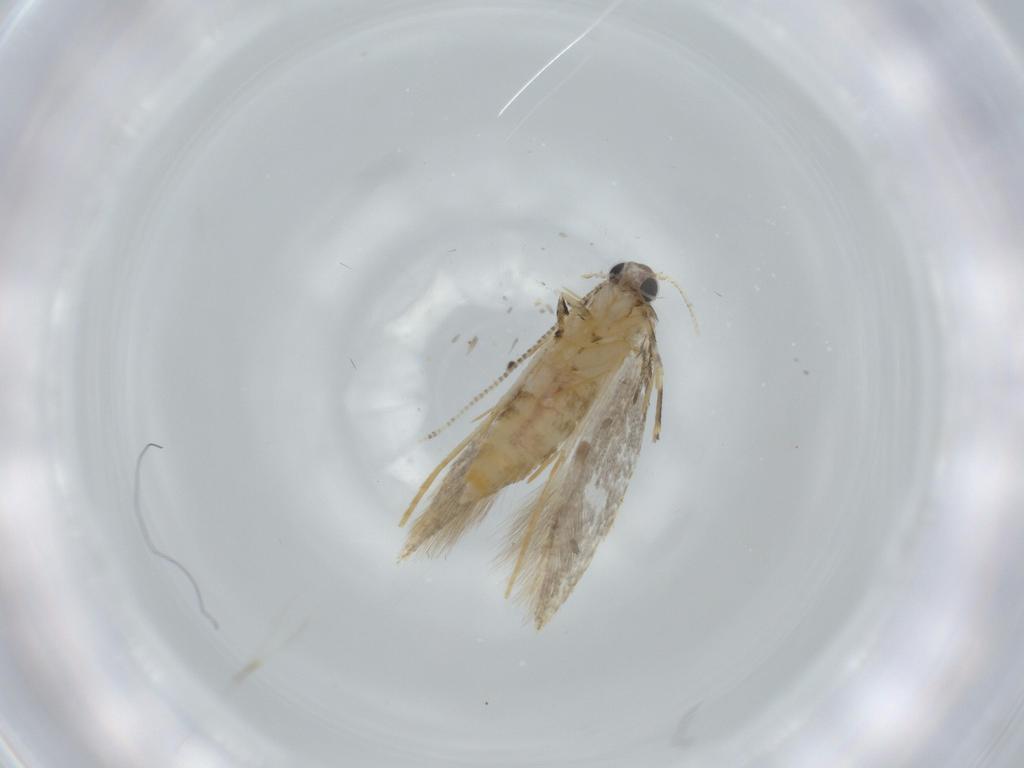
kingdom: Animalia
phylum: Arthropoda
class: Insecta
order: Lepidoptera
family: Tineidae
